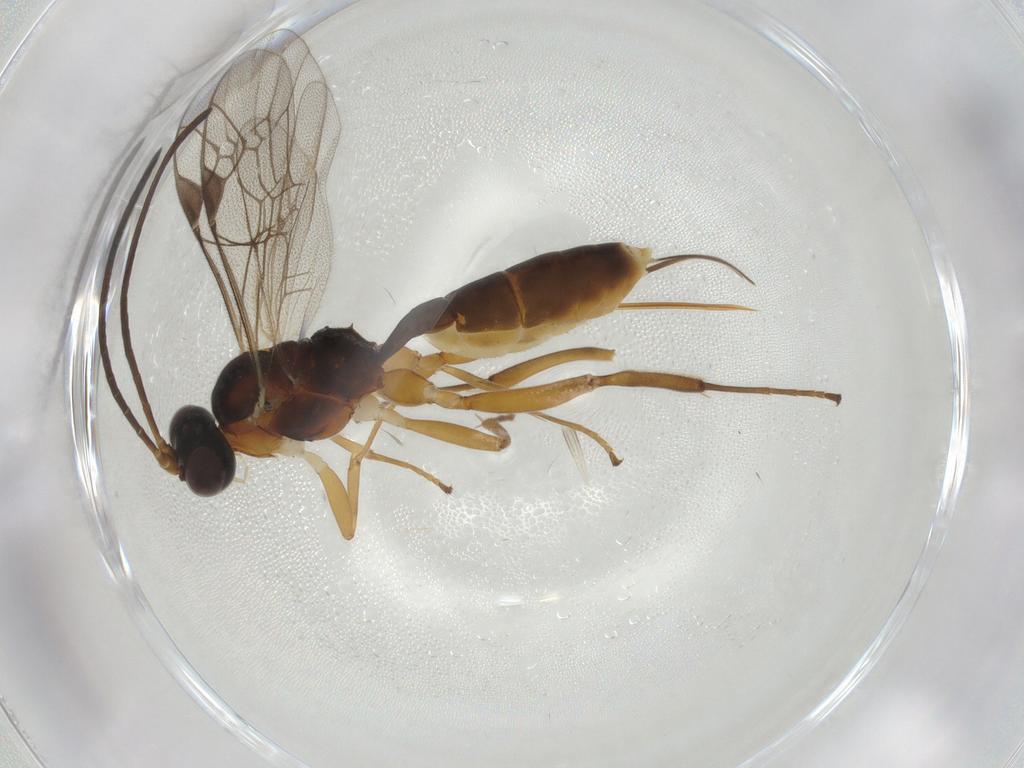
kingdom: Animalia
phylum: Arthropoda
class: Insecta
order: Hymenoptera
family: Ichneumonidae
